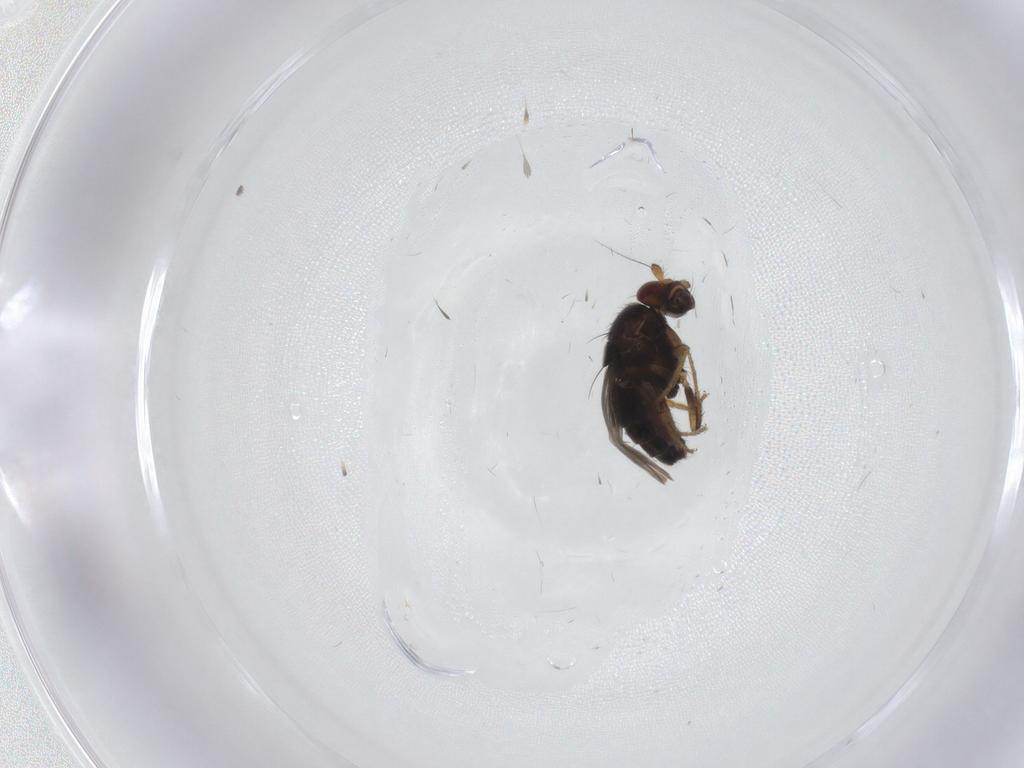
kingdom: Animalia
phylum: Arthropoda
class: Insecta
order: Diptera
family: Sphaeroceridae
